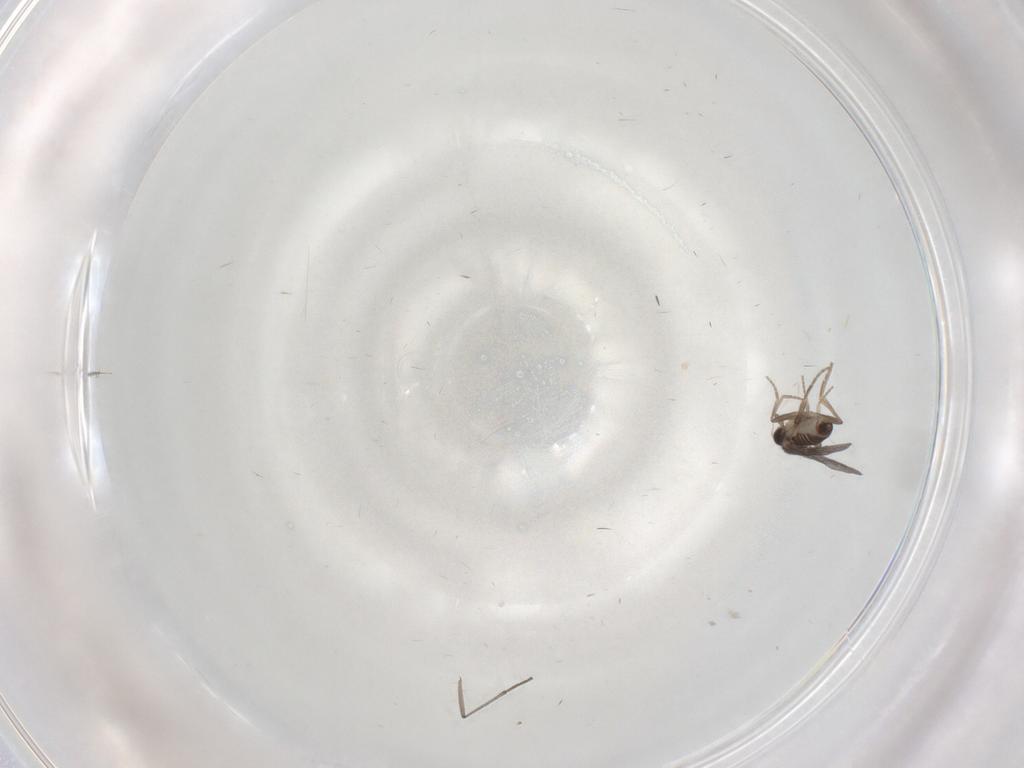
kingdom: Animalia
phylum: Arthropoda
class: Insecta
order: Diptera
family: Sciaridae
